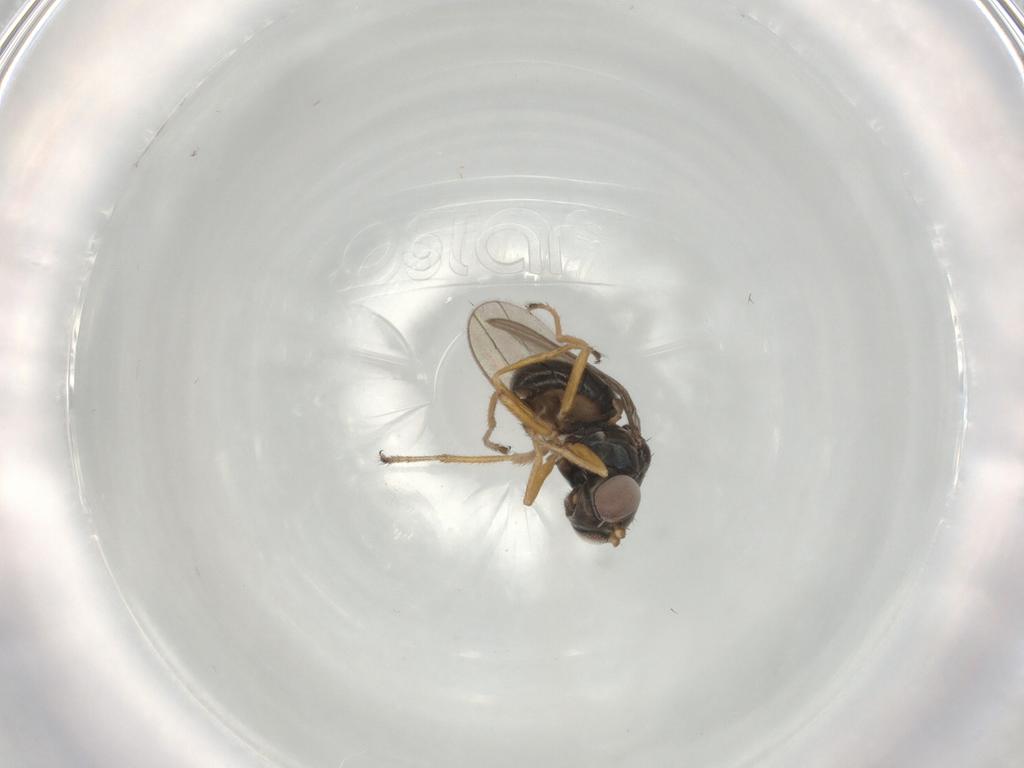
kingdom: Animalia
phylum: Arthropoda
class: Insecta
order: Diptera
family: Ephydridae
